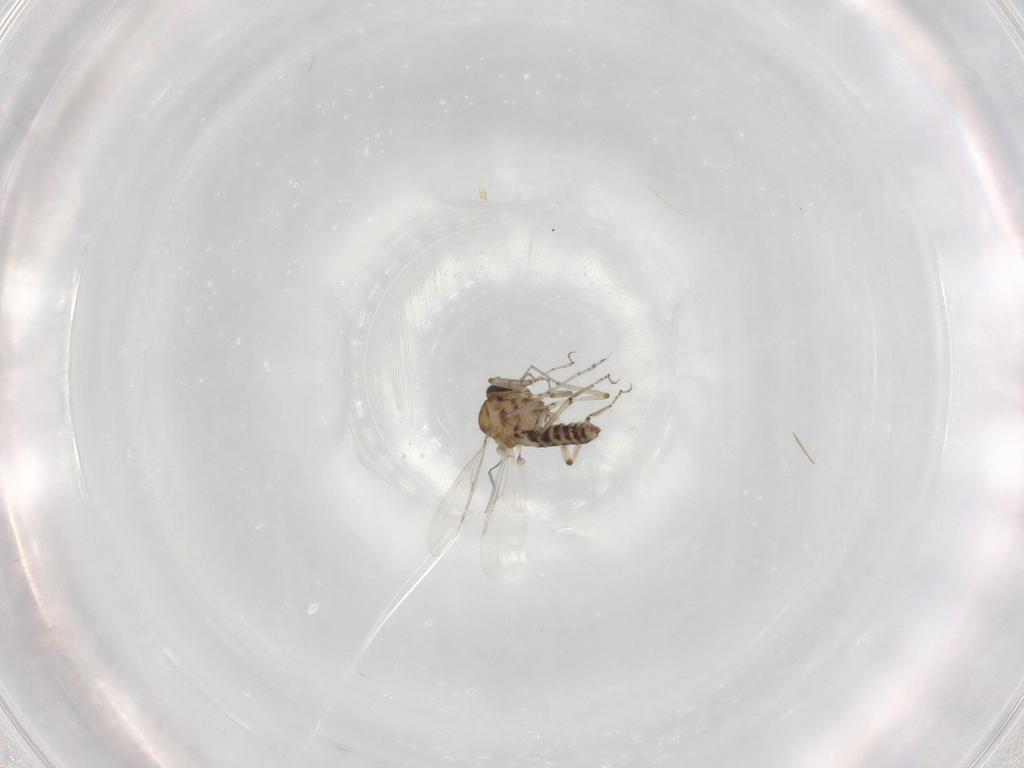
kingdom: Animalia
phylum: Arthropoda
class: Insecta
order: Diptera
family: Ceratopogonidae
